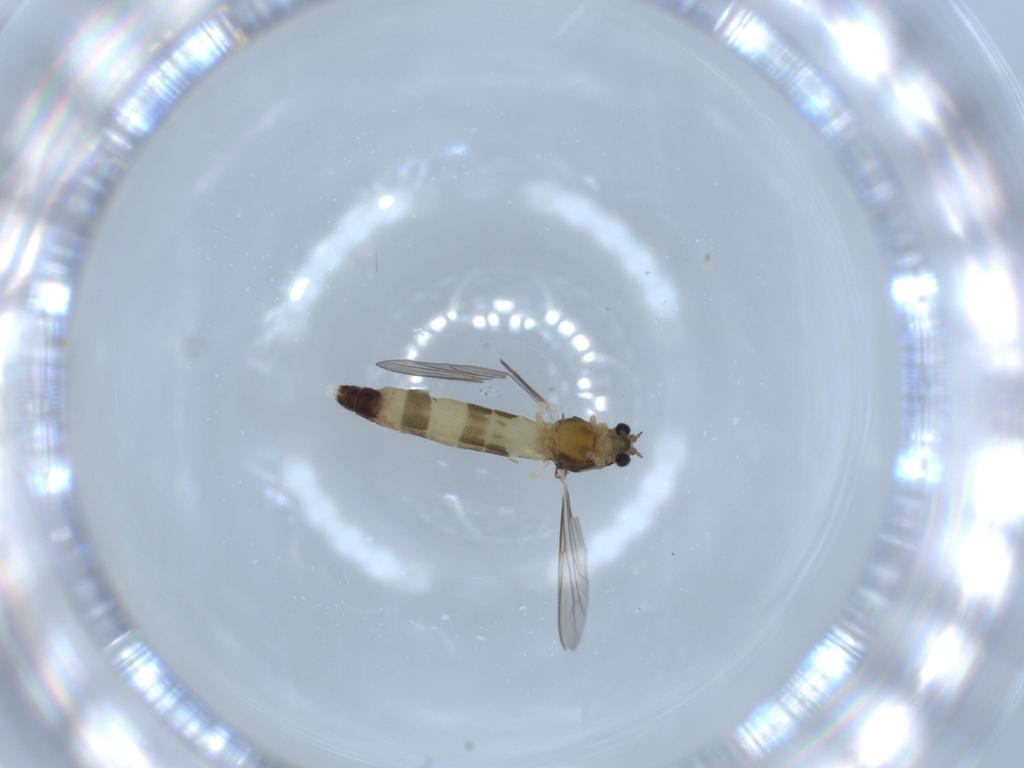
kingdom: Animalia
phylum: Arthropoda
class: Insecta
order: Diptera
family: Chironomidae
